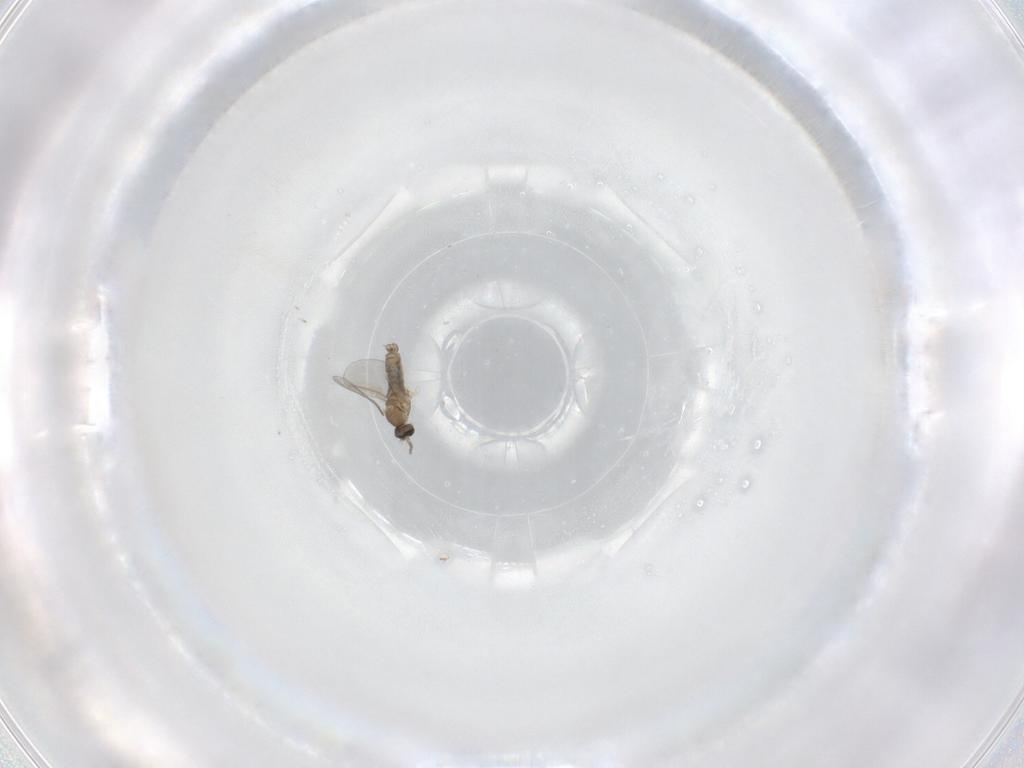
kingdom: Animalia
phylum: Arthropoda
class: Insecta
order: Diptera
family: Cecidomyiidae
